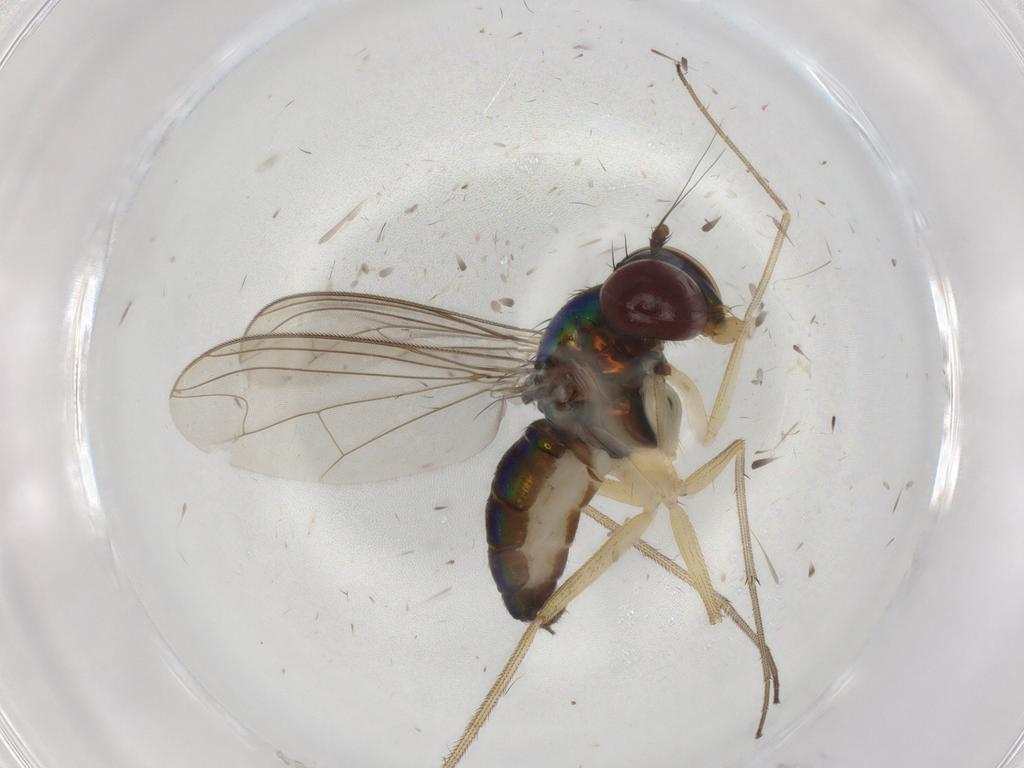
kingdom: Animalia
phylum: Arthropoda
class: Insecta
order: Diptera
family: Dolichopodidae
